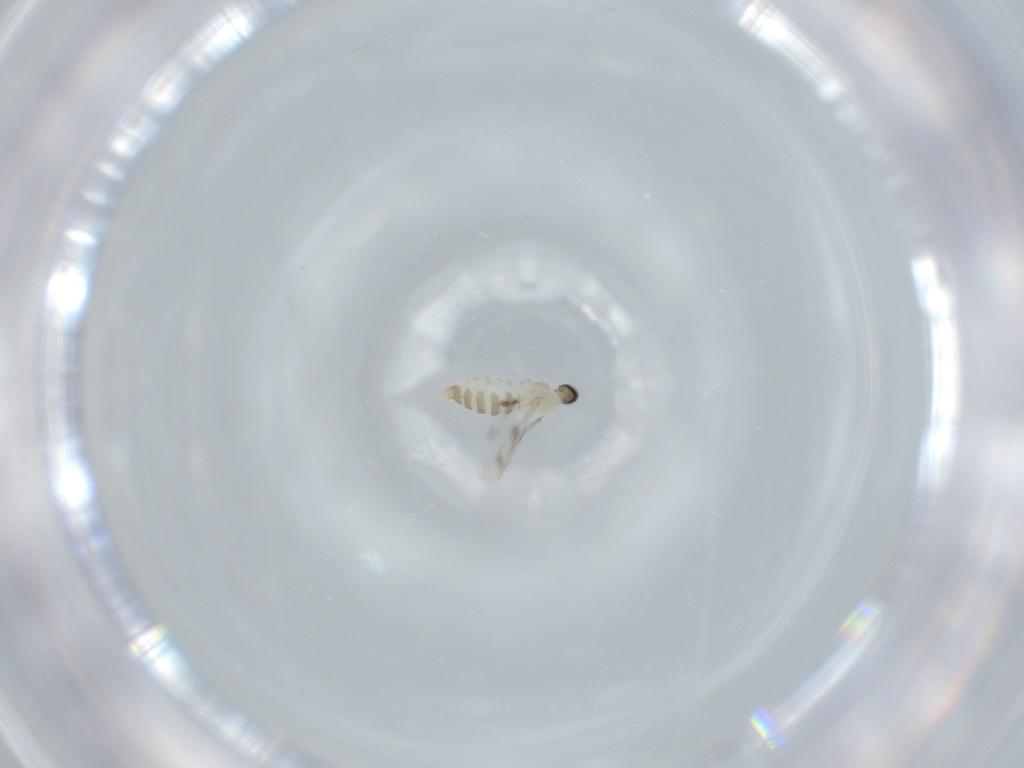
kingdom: Animalia
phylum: Arthropoda
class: Insecta
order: Diptera
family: Cecidomyiidae
